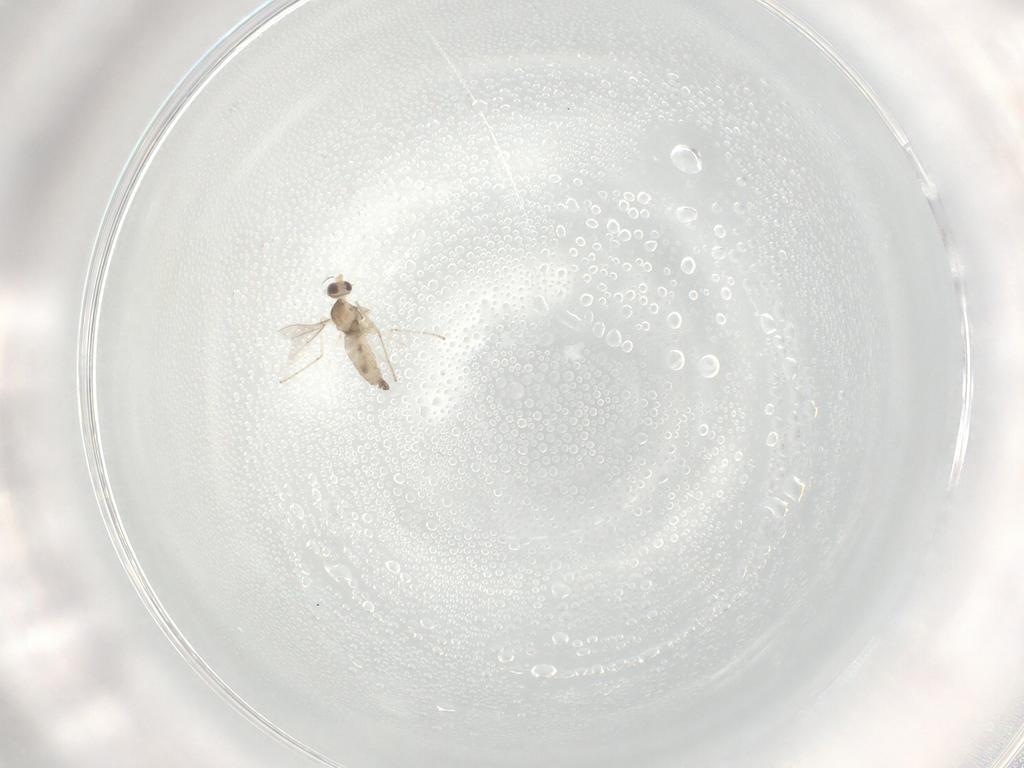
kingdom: Animalia
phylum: Arthropoda
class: Insecta
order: Diptera
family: Cecidomyiidae
